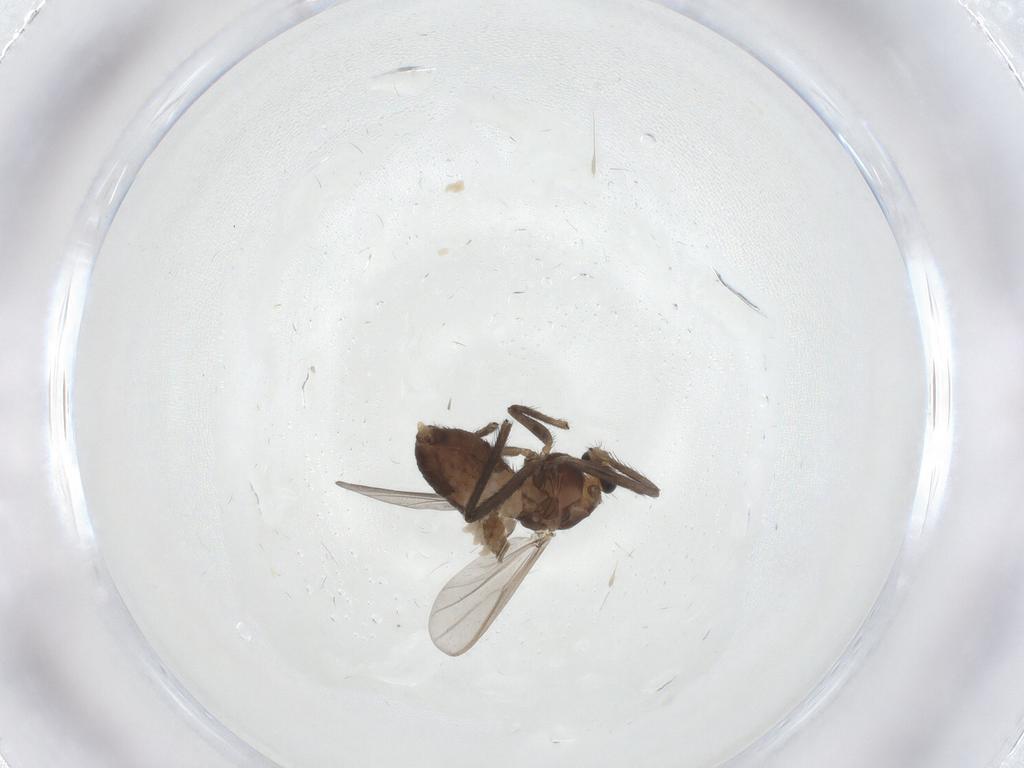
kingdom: Animalia
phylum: Arthropoda
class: Insecta
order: Diptera
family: Chironomidae
